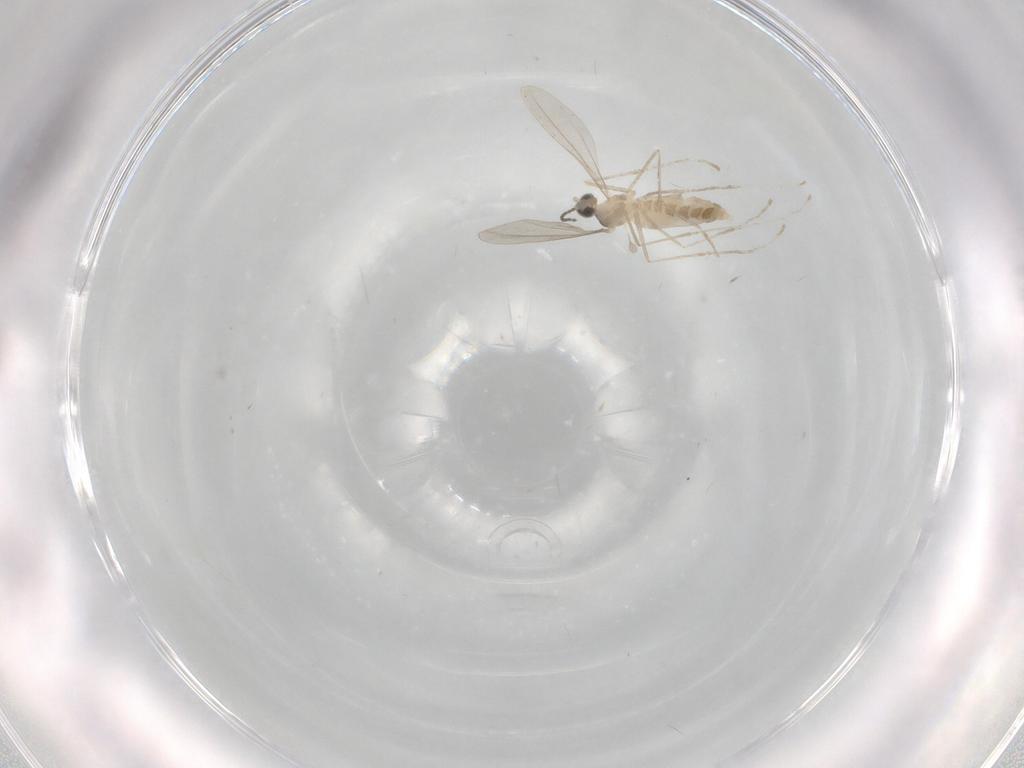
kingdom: Animalia
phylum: Arthropoda
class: Insecta
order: Diptera
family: Cecidomyiidae
